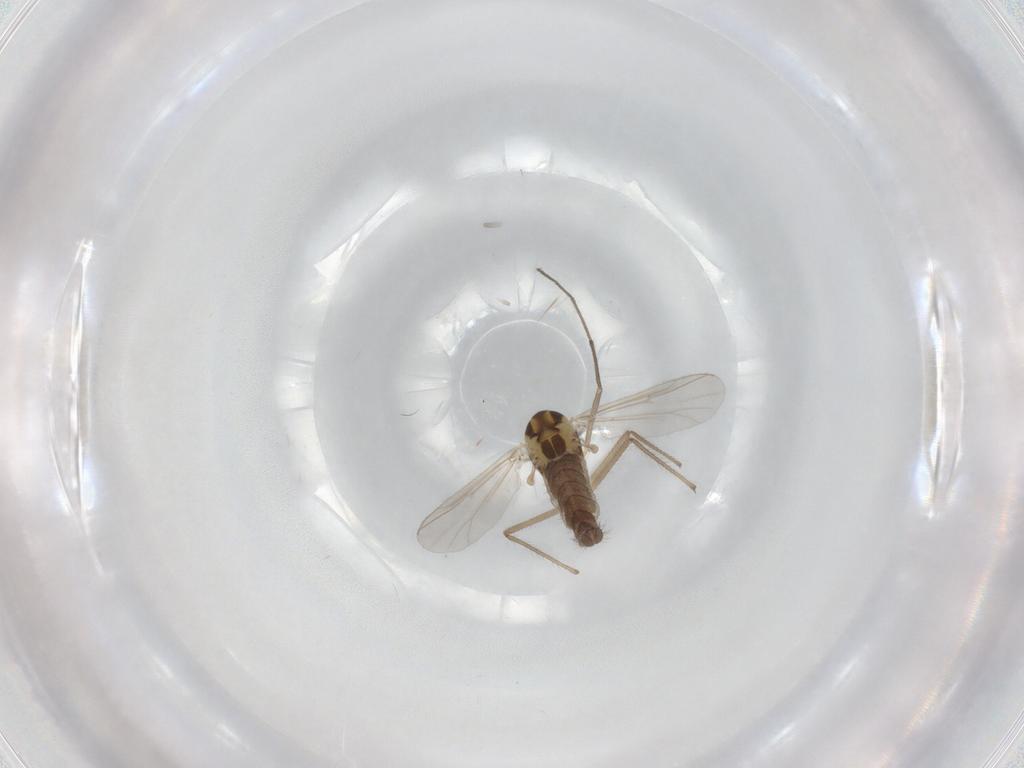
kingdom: Animalia
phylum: Arthropoda
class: Insecta
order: Diptera
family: Chironomidae
